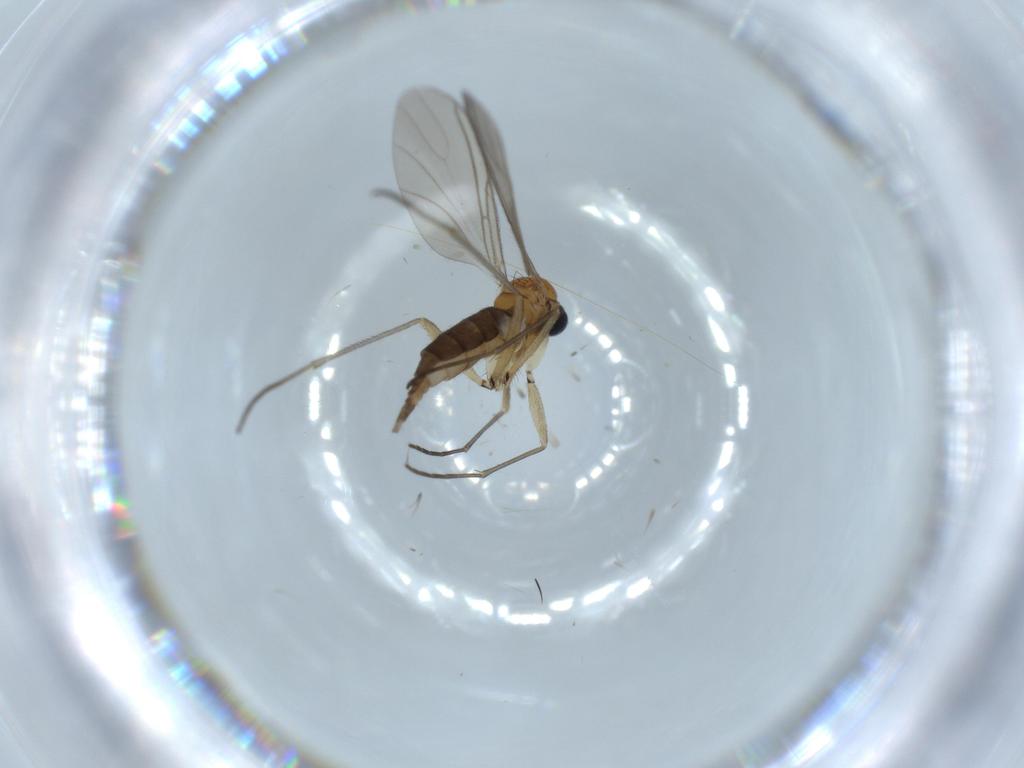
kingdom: Animalia
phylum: Arthropoda
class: Insecta
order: Diptera
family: Sciaridae
